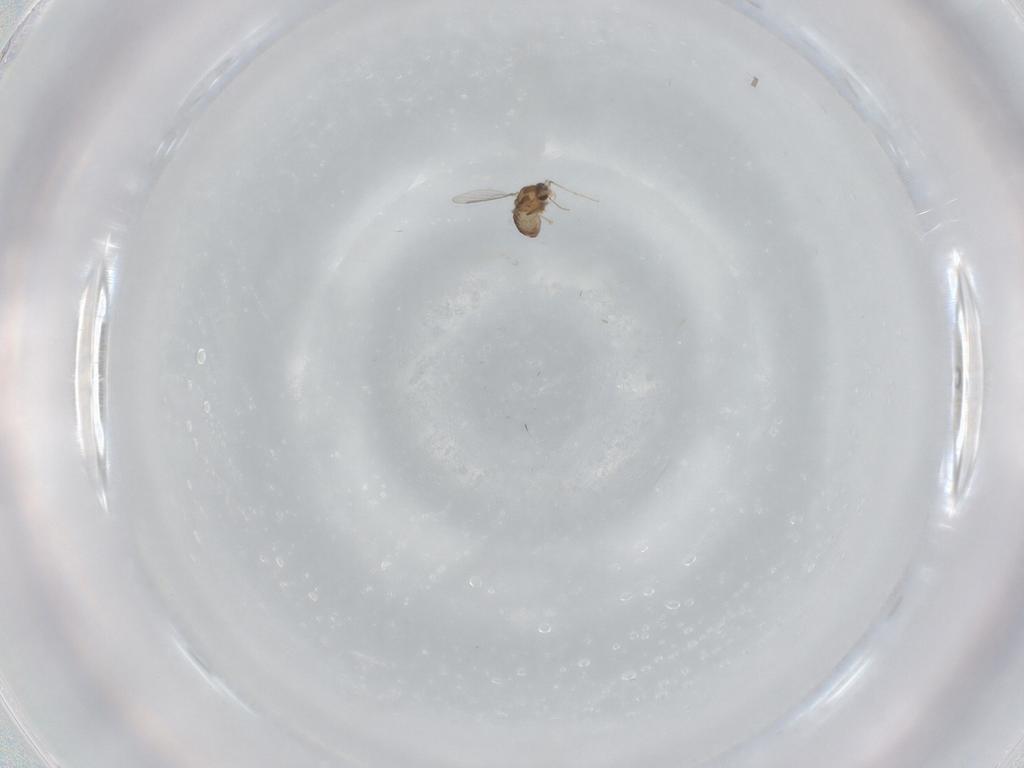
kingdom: Animalia
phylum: Arthropoda
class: Insecta
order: Diptera
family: Chironomidae
